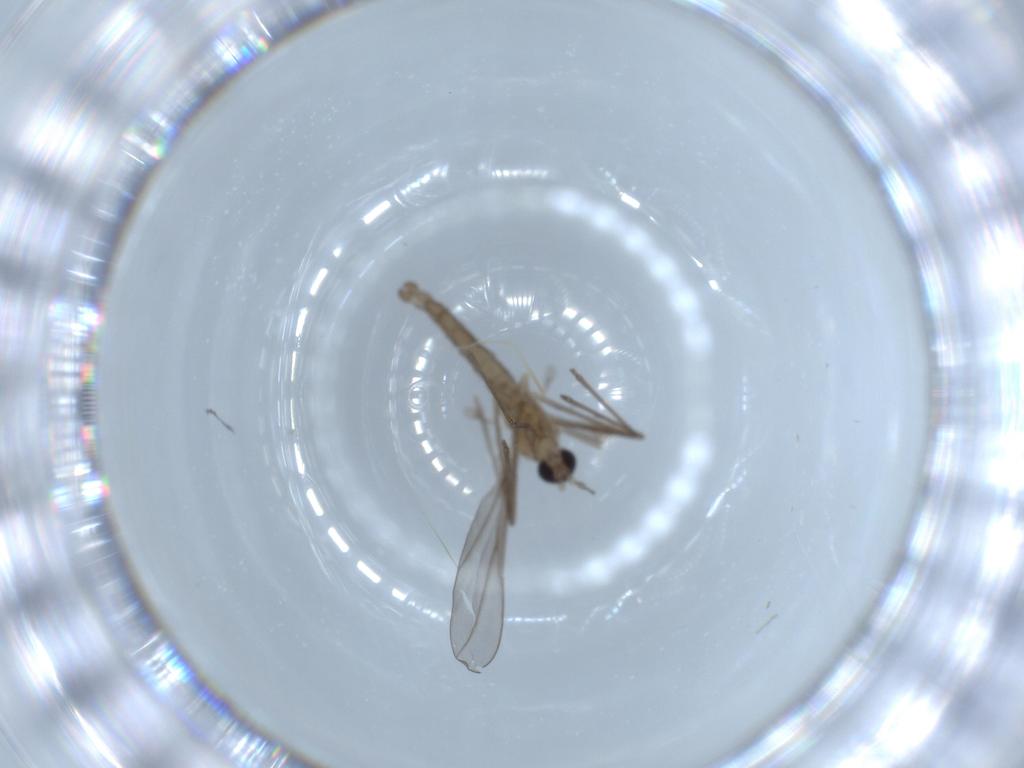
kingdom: Animalia
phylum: Arthropoda
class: Insecta
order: Diptera
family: Cecidomyiidae
